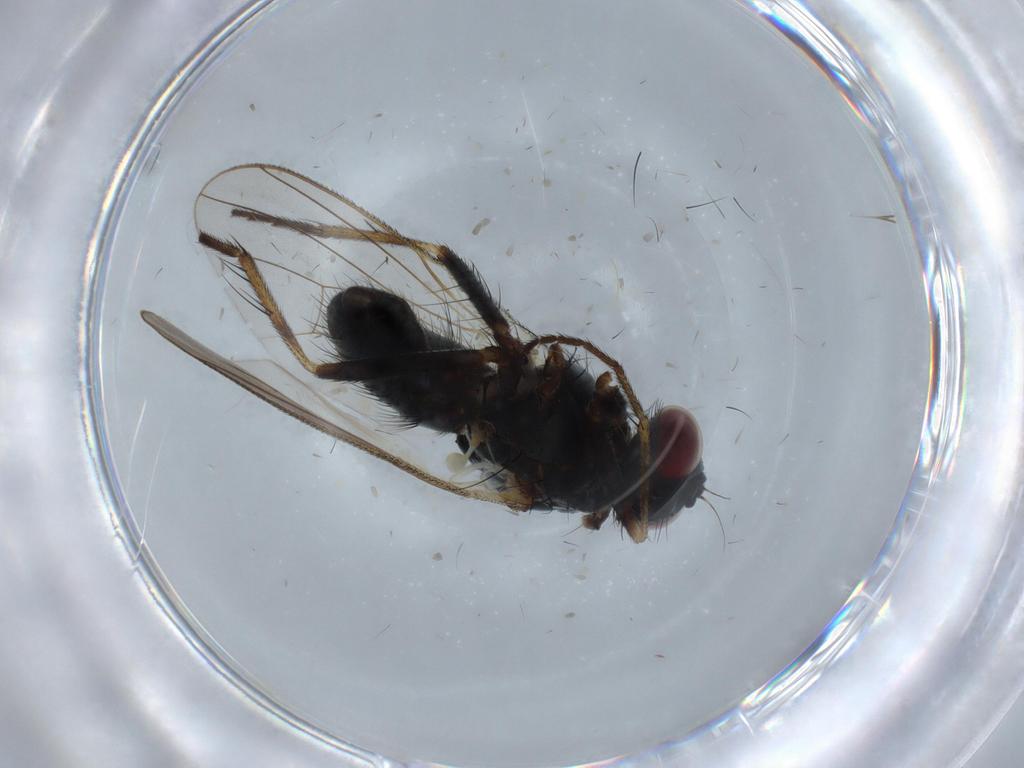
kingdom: Animalia
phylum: Arthropoda
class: Insecta
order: Diptera
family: Muscidae
